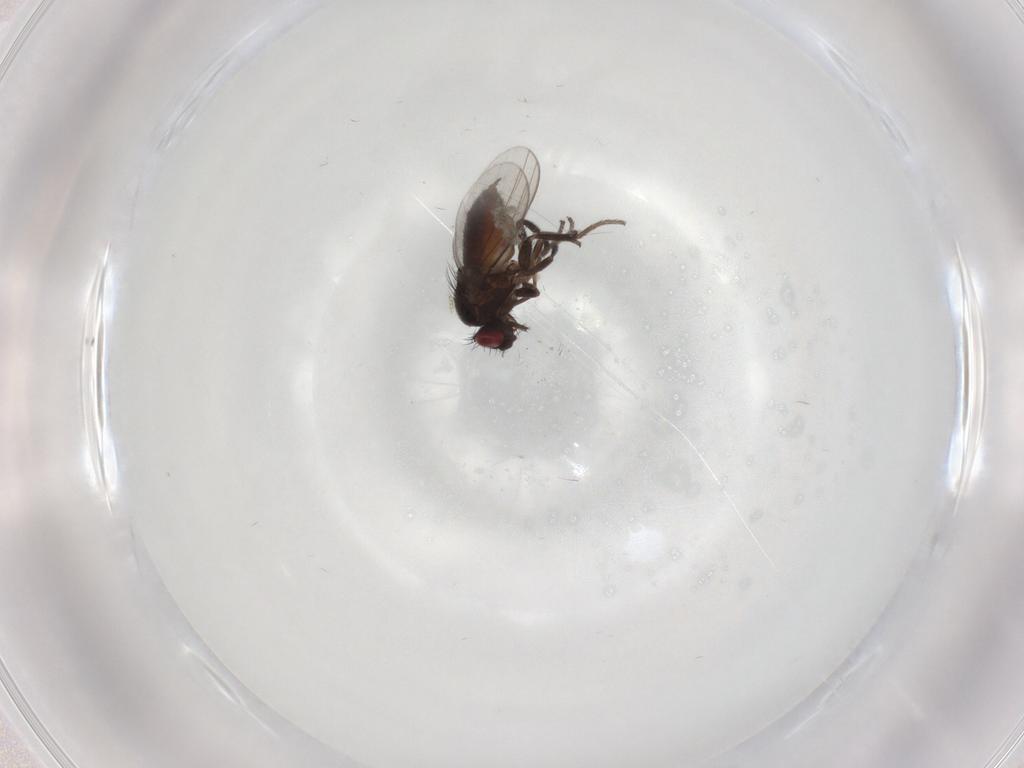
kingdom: Animalia
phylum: Arthropoda
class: Insecta
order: Diptera
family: Milichiidae
